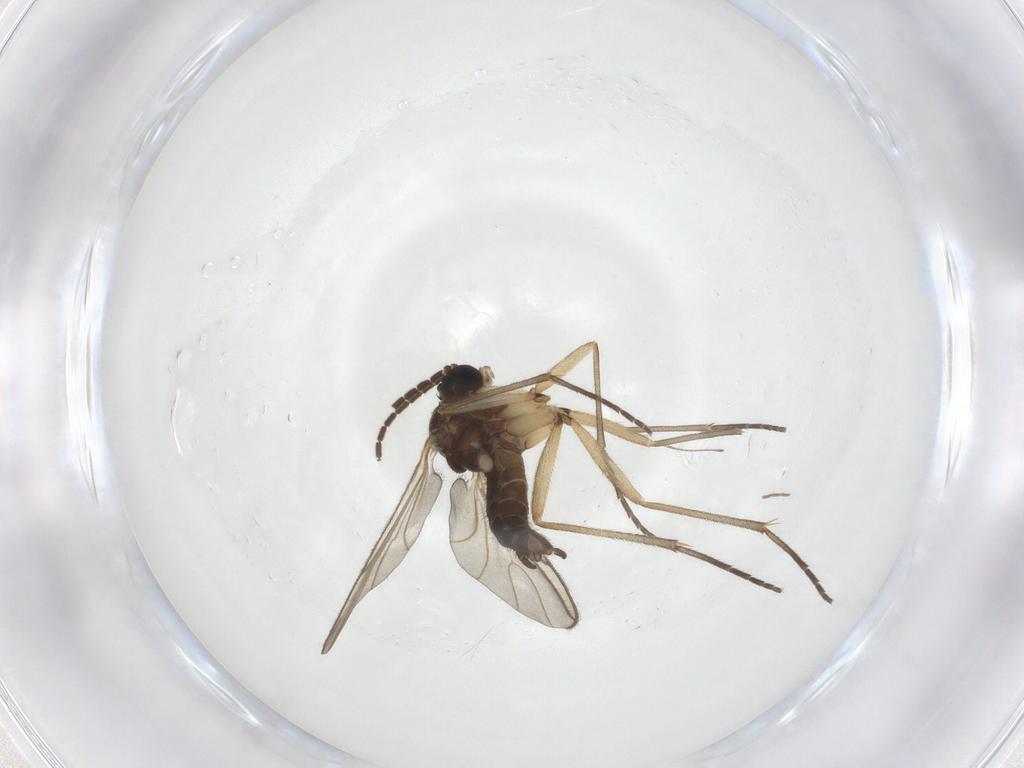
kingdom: Animalia
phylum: Arthropoda
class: Insecta
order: Diptera
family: Sciaridae
